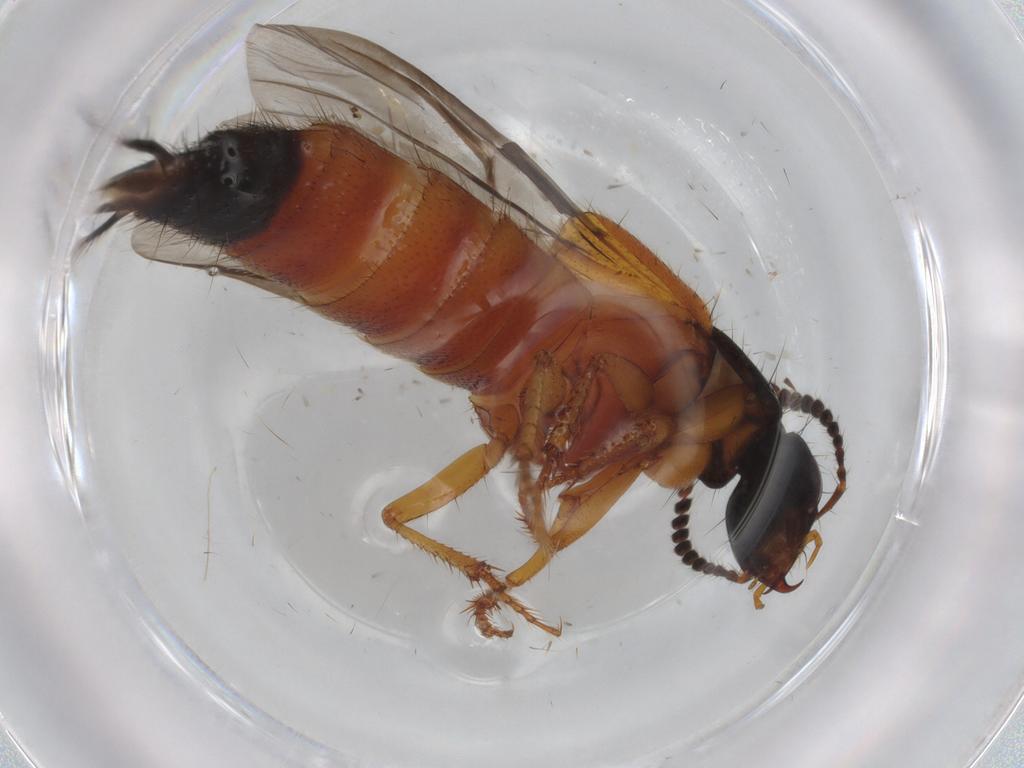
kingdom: Animalia
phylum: Arthropoda
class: Insecta
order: Coleoptera
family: Staphylinidae
